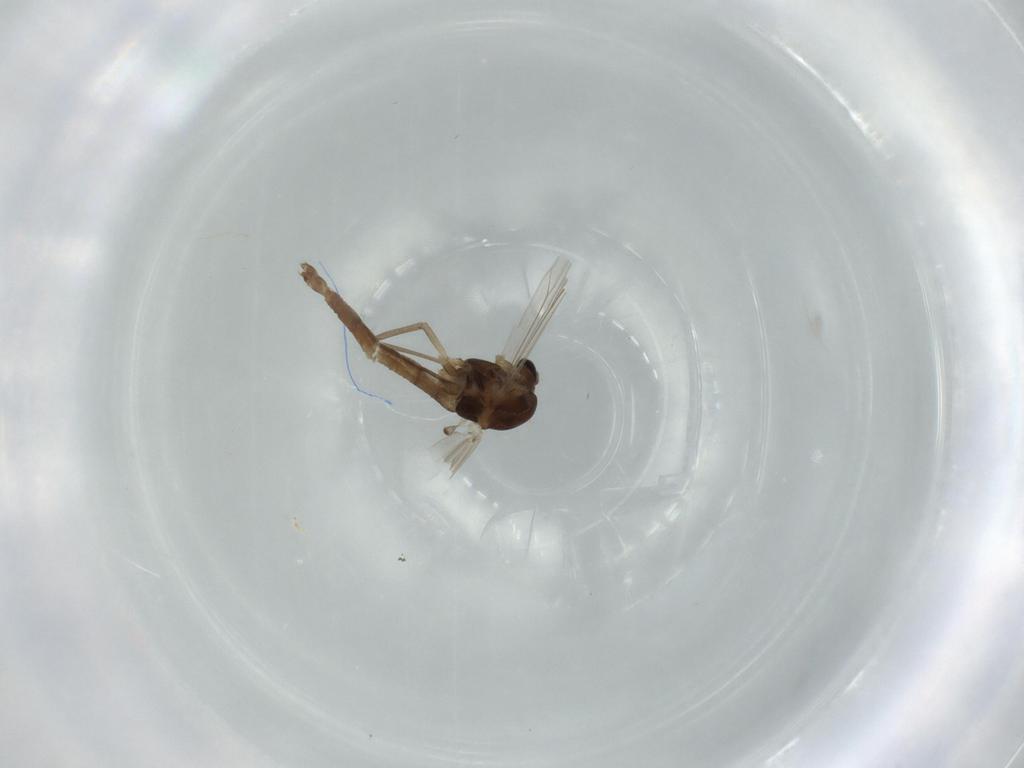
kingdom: Animalia
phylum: Arthropoda
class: Insecta
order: Diptera
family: Chironomidae
